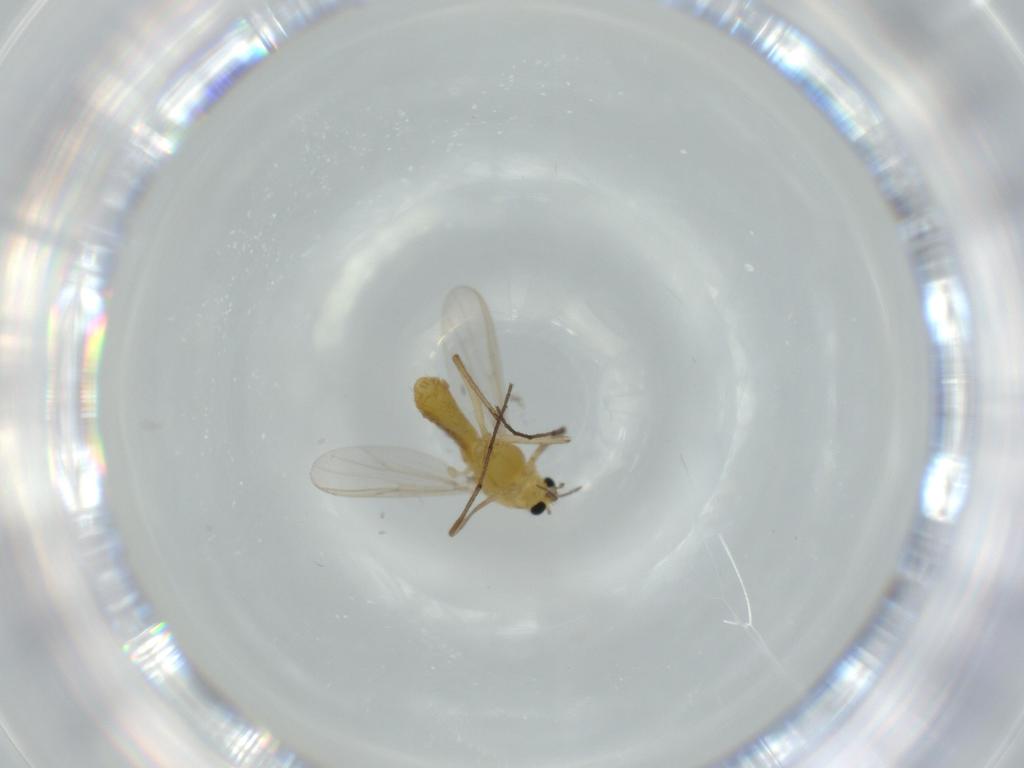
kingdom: Animalia
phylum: Arthropoda
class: Insecta
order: Diptera
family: Chironomidae
